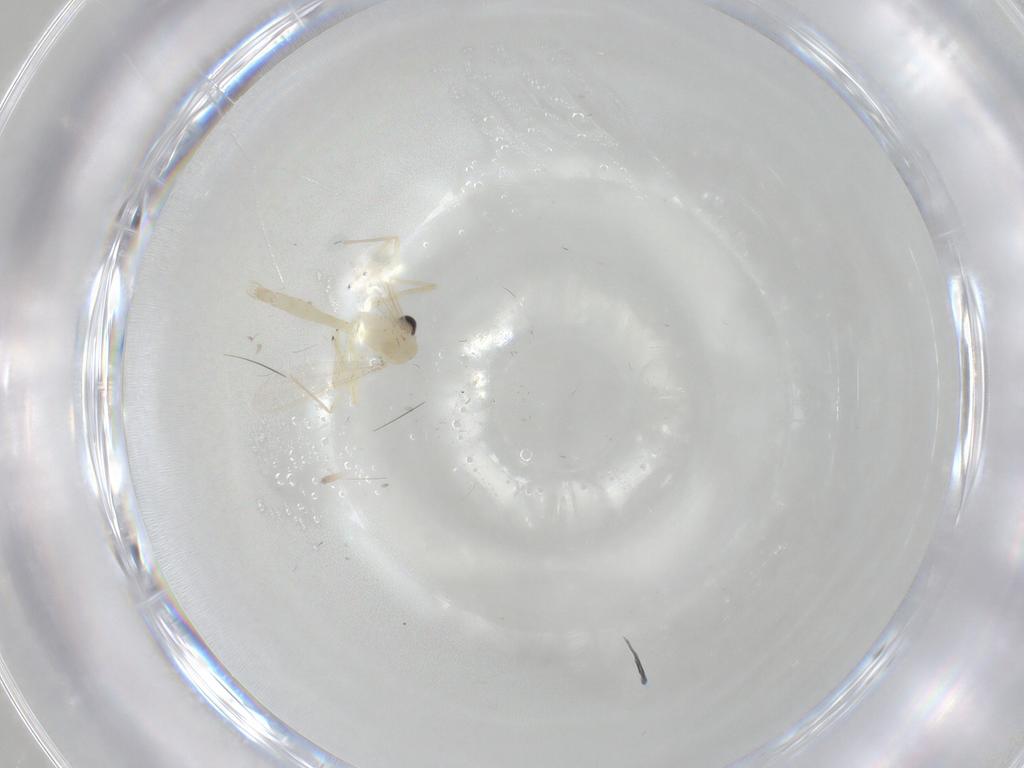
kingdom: Animalia
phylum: Arthropoda
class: Insecta
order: Diptera
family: Chironomidae
